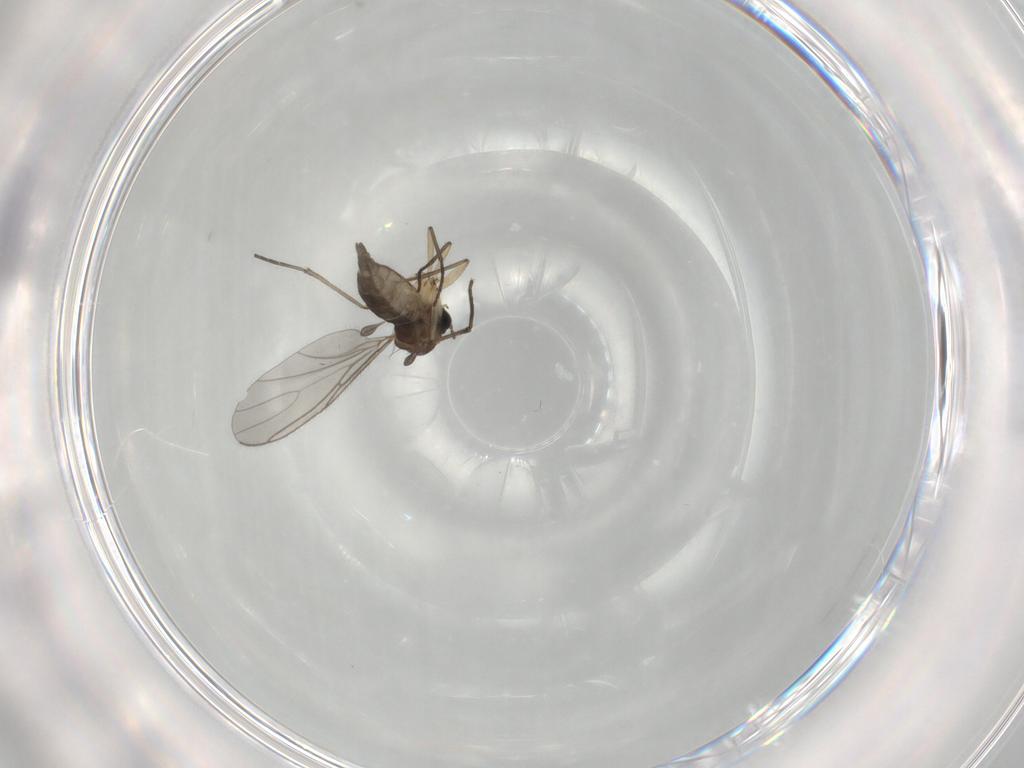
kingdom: Animalia
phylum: Arthropoda
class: Insecta
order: Diptera
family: Sciaridae
